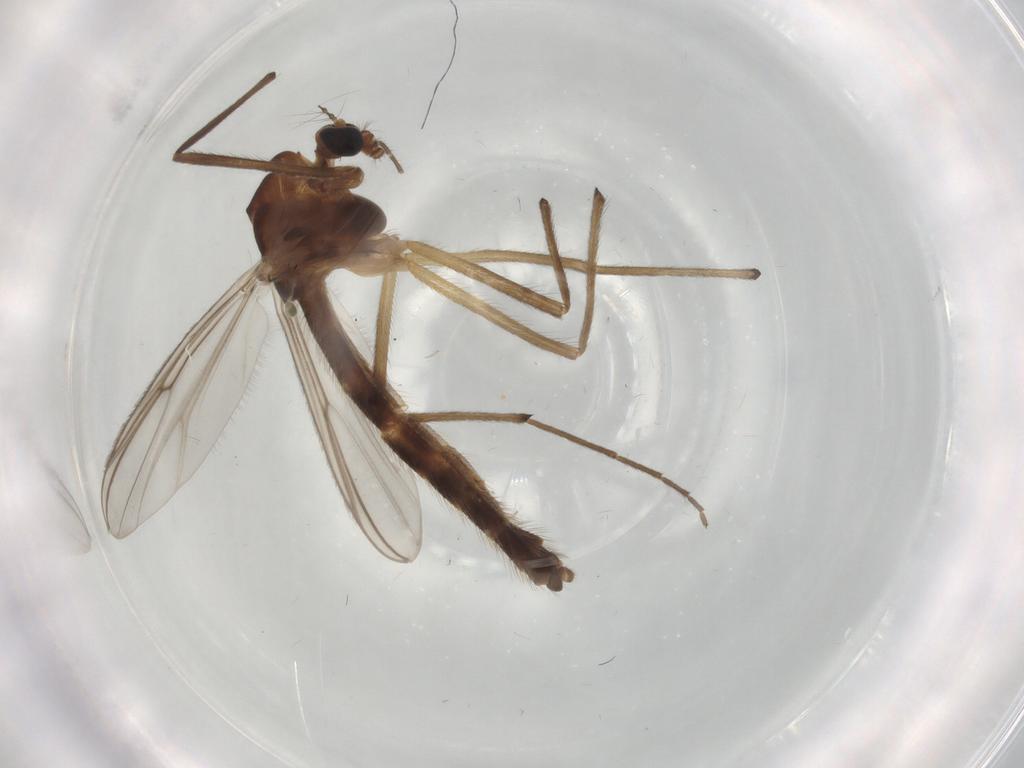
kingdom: Animalia
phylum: Arthropoda
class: Insecta
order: Diptera
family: Chironomidae
